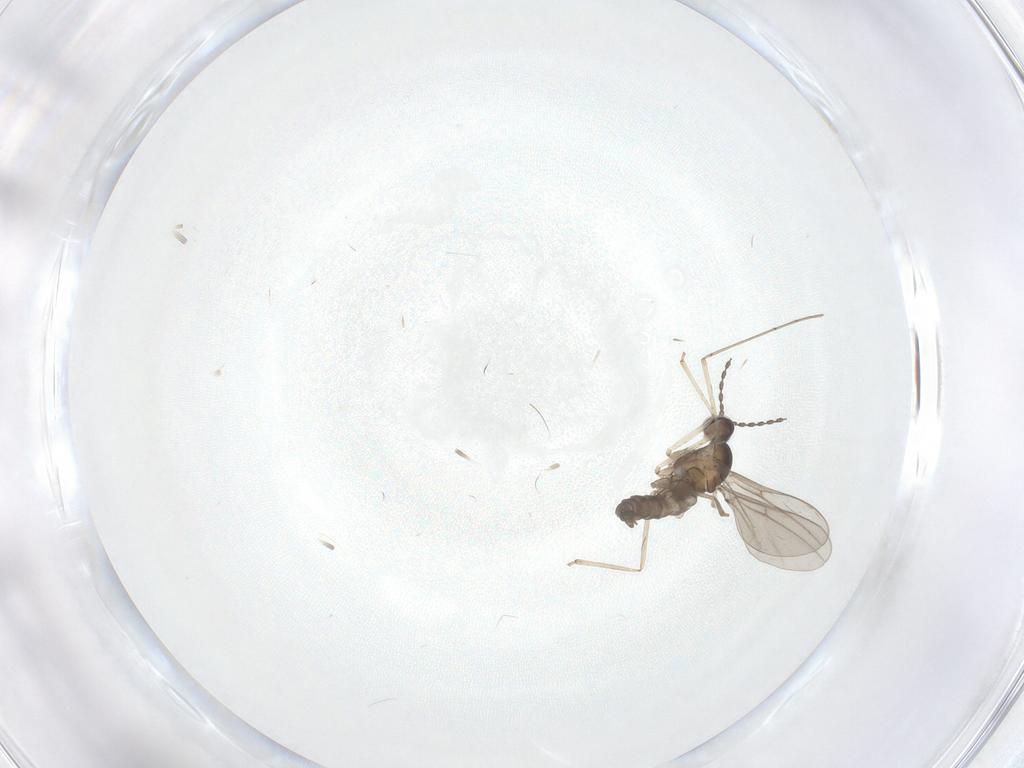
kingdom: Animalia
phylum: Arthropoda
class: Insecta
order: Diptera
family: Cecidomyiidae
